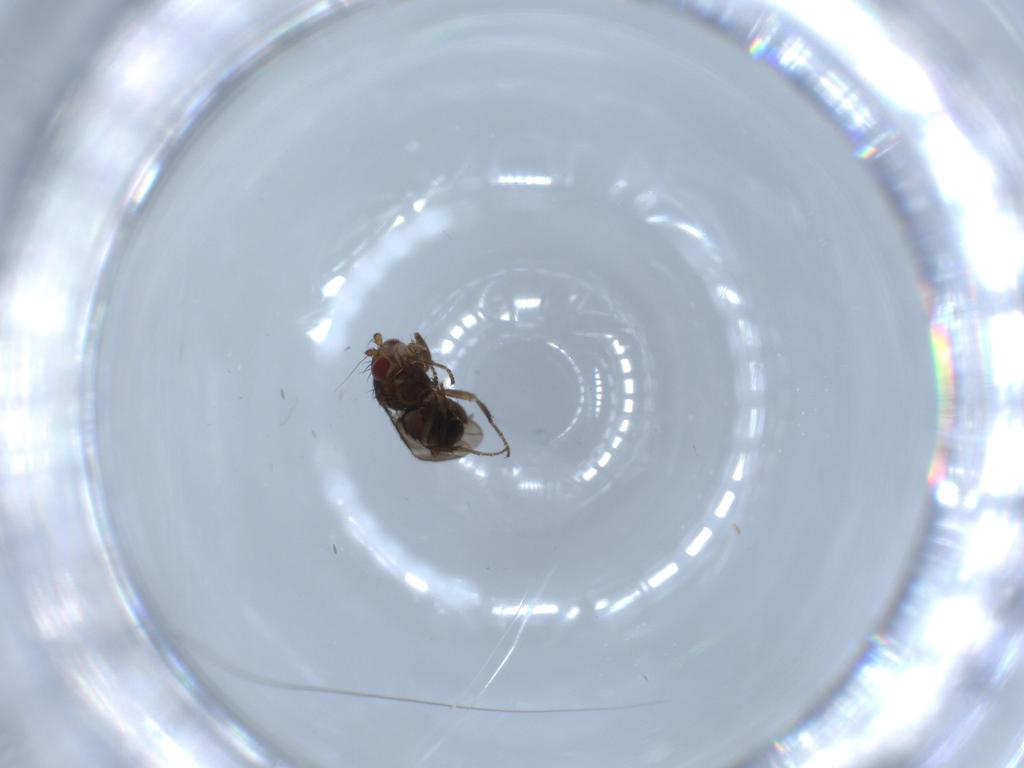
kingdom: Animalia
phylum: Arthropoda
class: Insecta
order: Diptera
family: Sphaeroceridae
